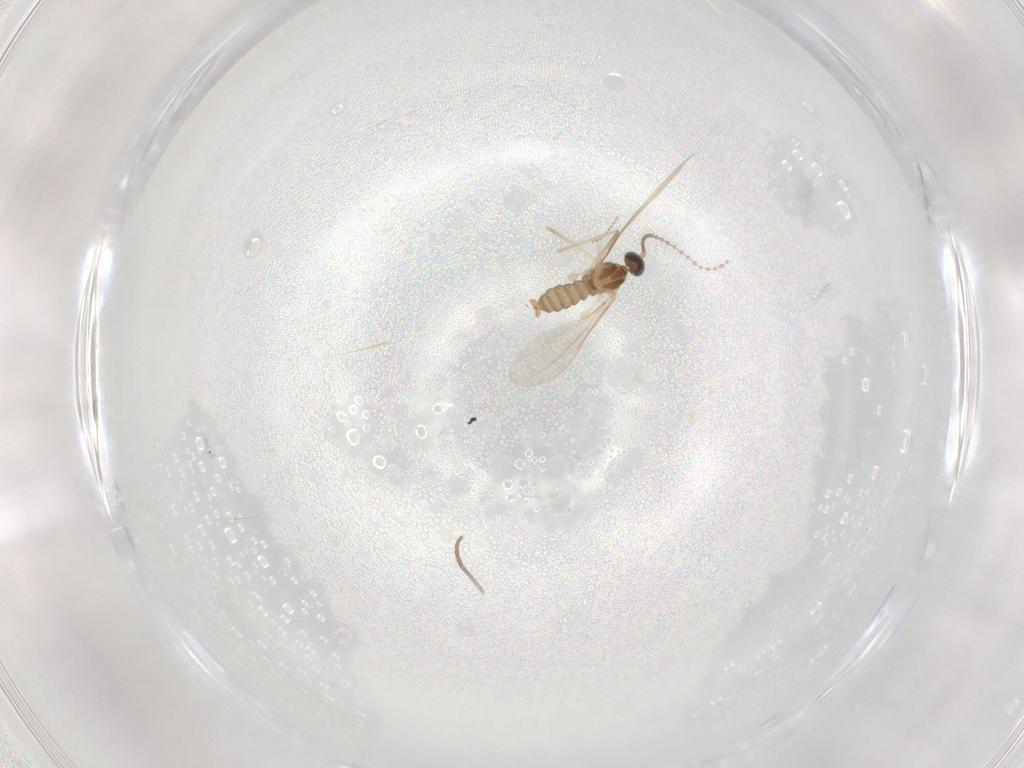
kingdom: Animalia
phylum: Arthropoda
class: Insecta
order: Diptera
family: Cecidomyiidae
